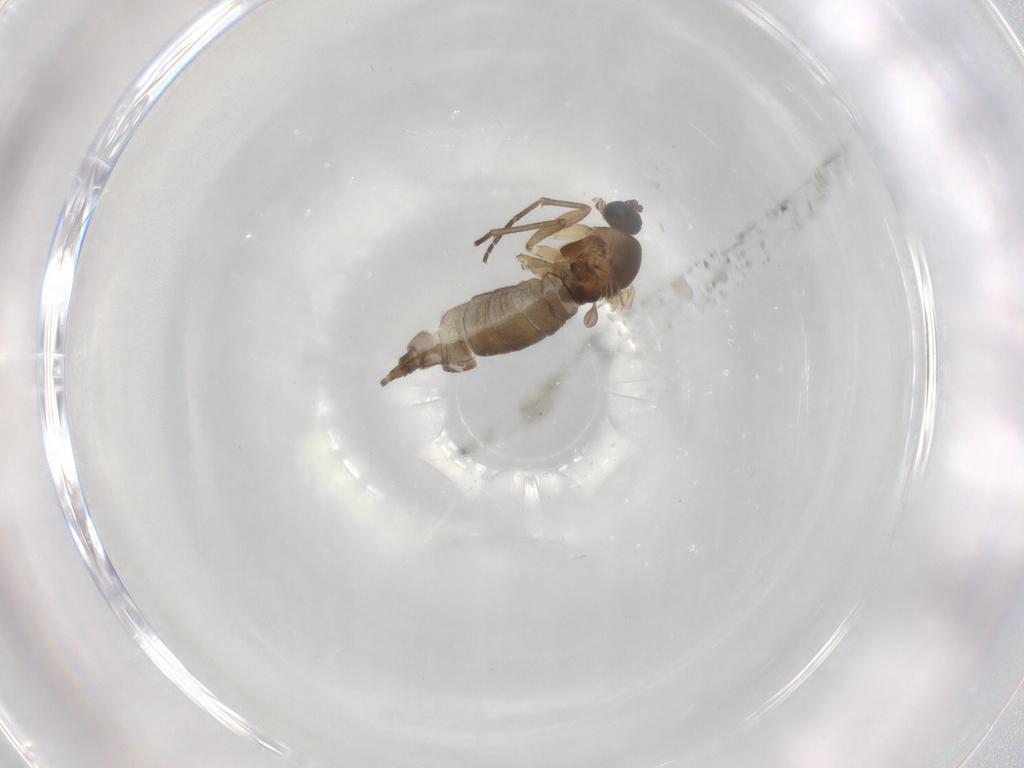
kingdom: Animalia
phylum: Arthropoda
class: Insecta
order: Diptera
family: Sciaridae
